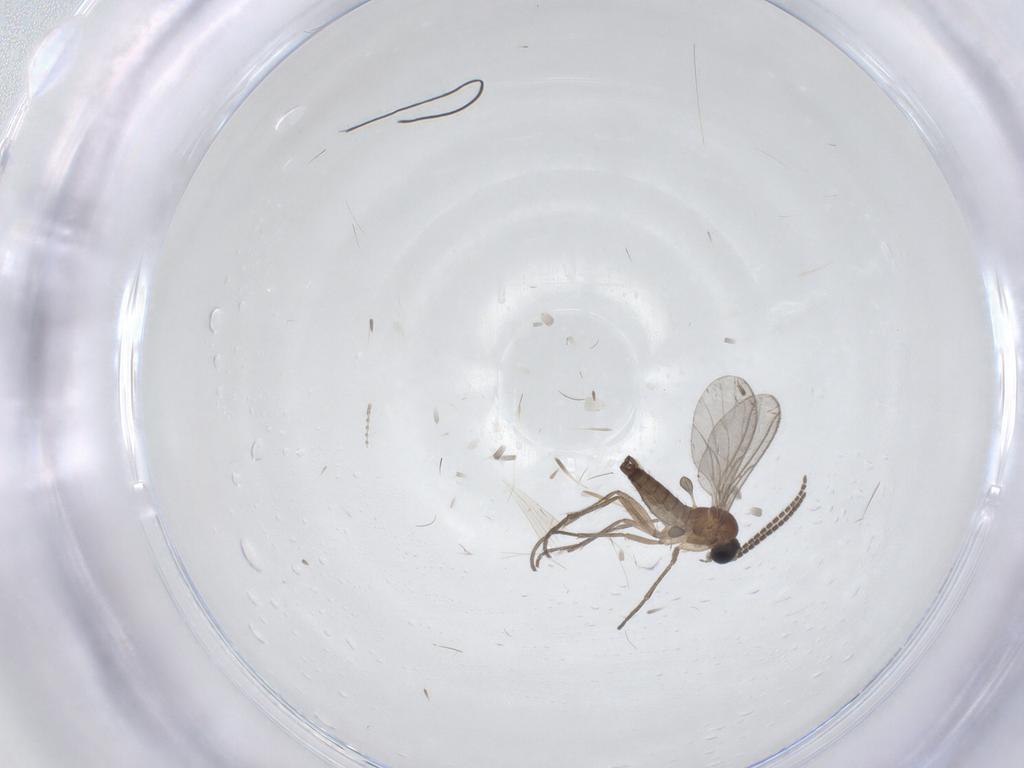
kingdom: Animalia
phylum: Arthropoda
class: Insecta
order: Diptera
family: Sciaridae
